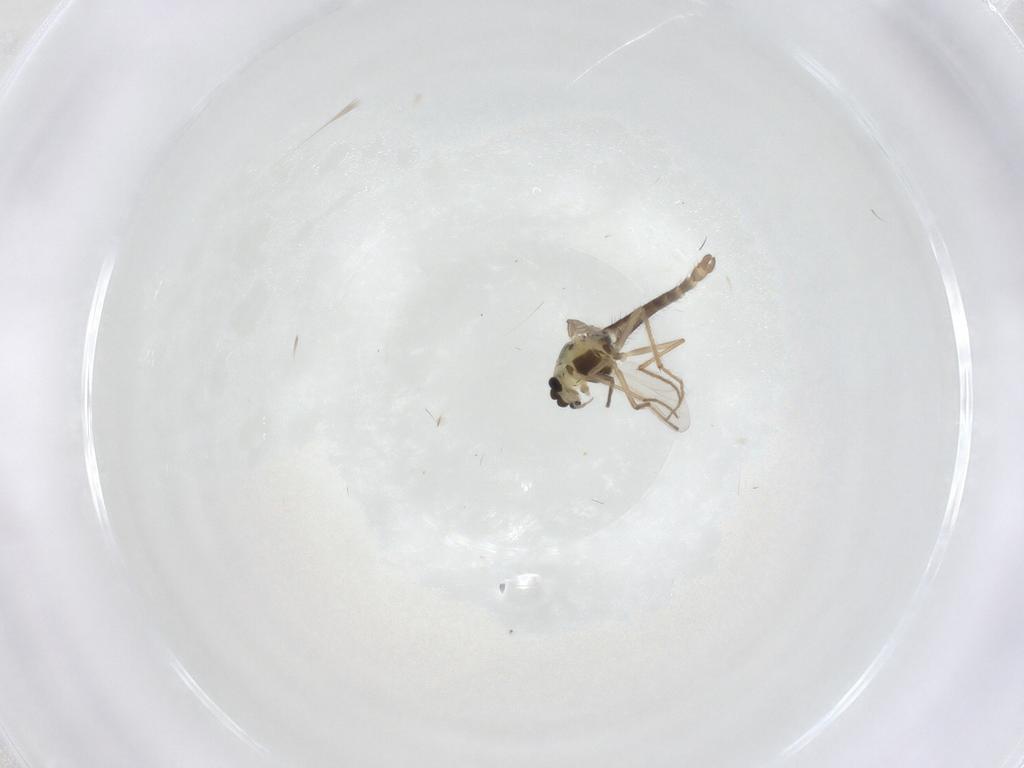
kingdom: Animalia
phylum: Arthropoda
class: Insecta
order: Diptera
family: Chironomidae
